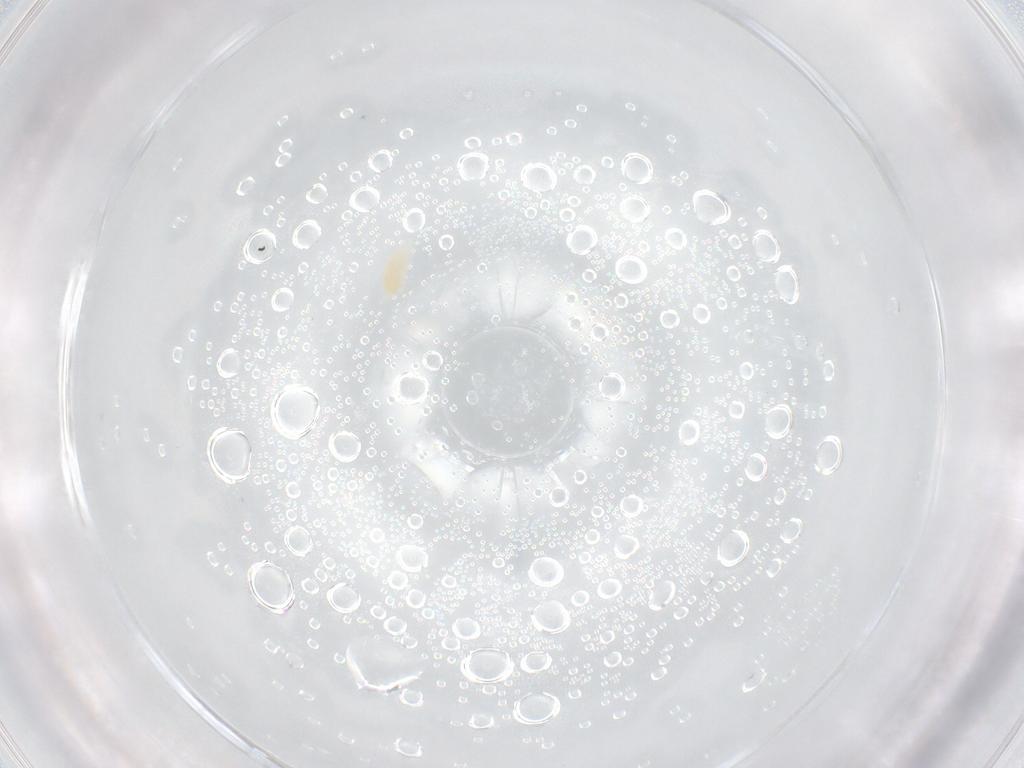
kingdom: Animalia
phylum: Arthropoda
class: Arachnida
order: Trombidiformes
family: Eupodidae
